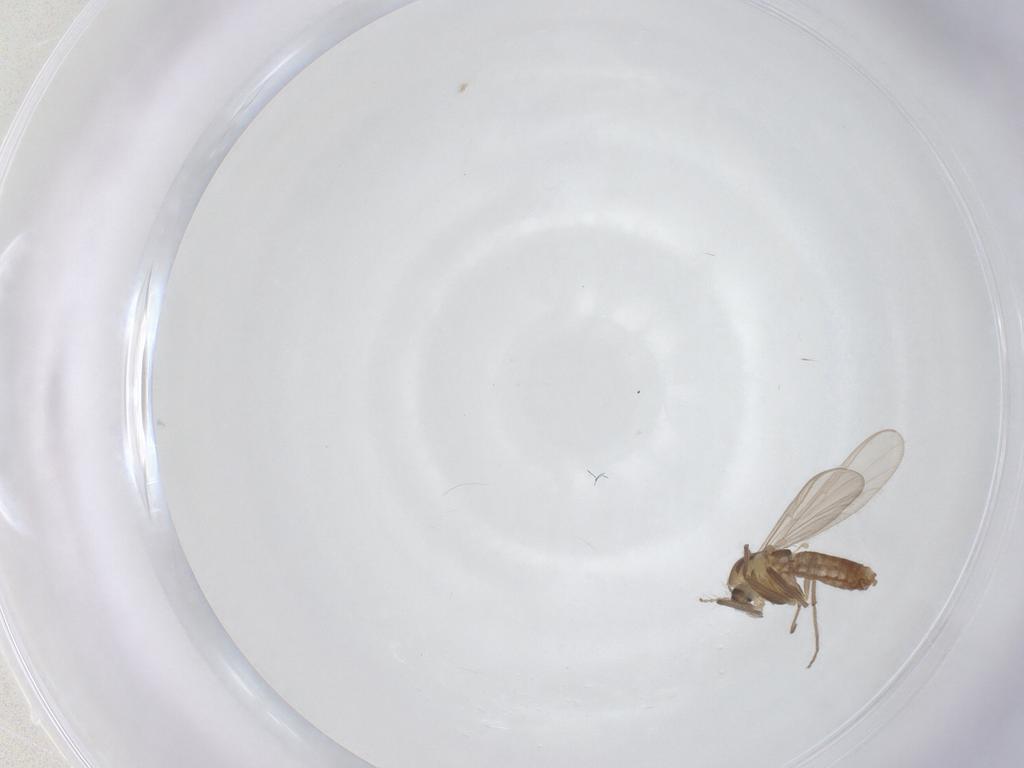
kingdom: Animalia
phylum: Arthropoda
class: Insecta
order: Diptera
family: Chironomidae
